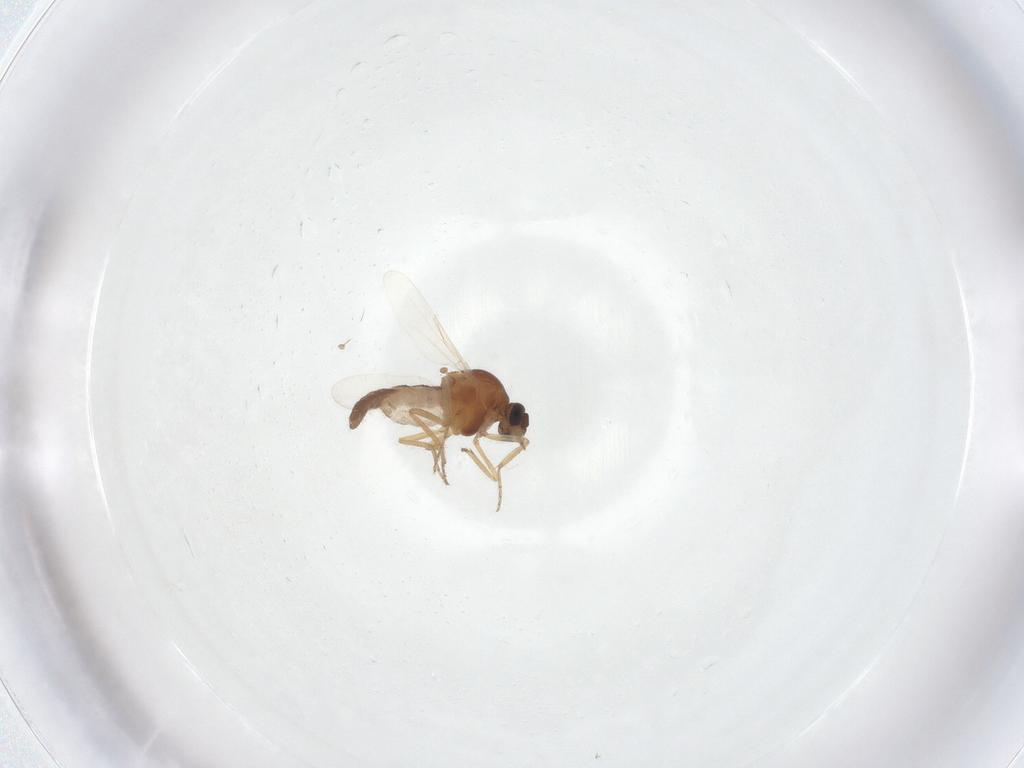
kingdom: Animalia
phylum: Arthropoda
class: Insecta
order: Diptera
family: Ceratopogonidae
